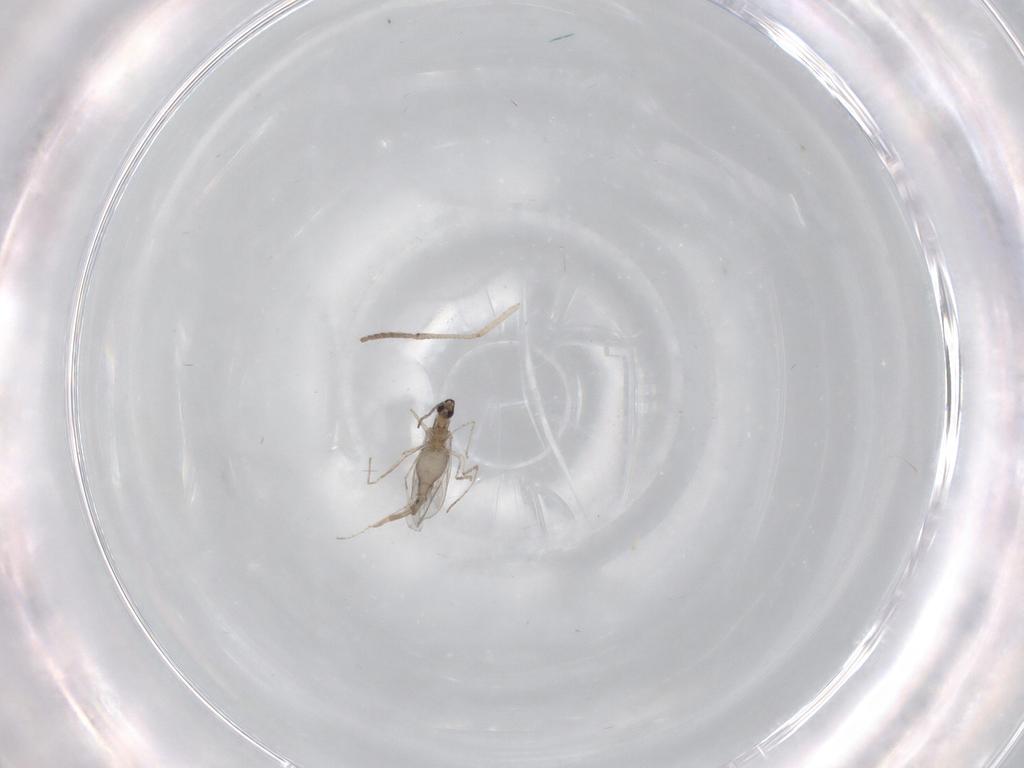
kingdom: Animalia
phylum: Arthropoda
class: Insecta
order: Diptera
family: Psychodidae
